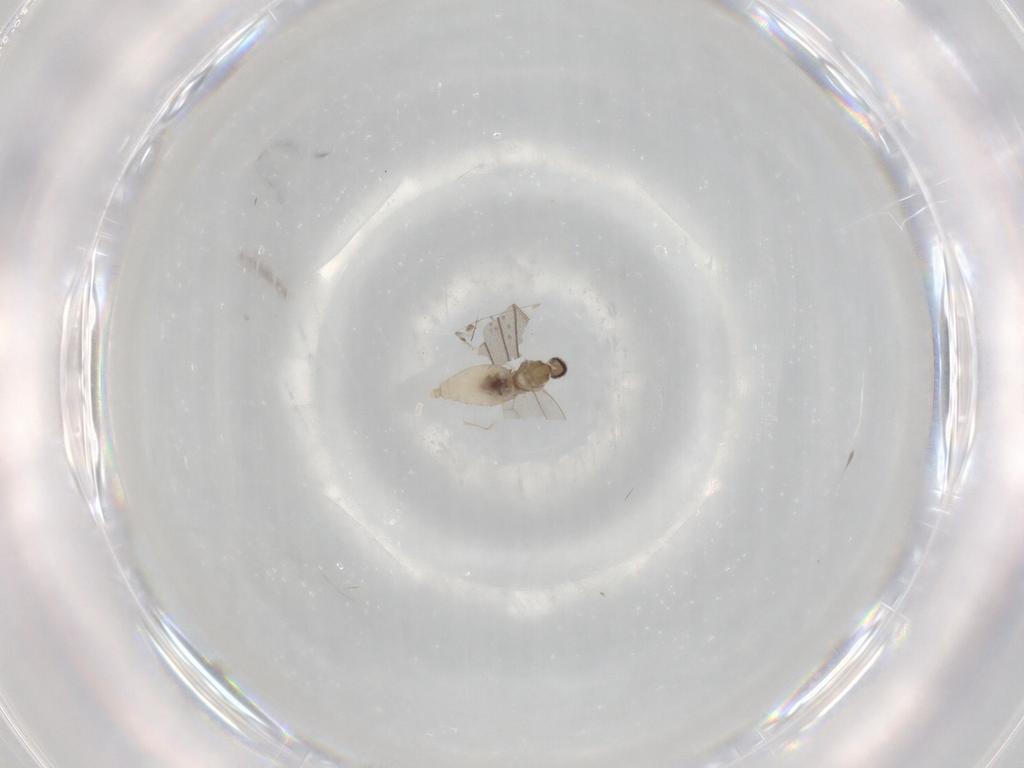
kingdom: Animalia
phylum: Arthropoda
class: Insecta
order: Diptera
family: Cecidomyiidae
